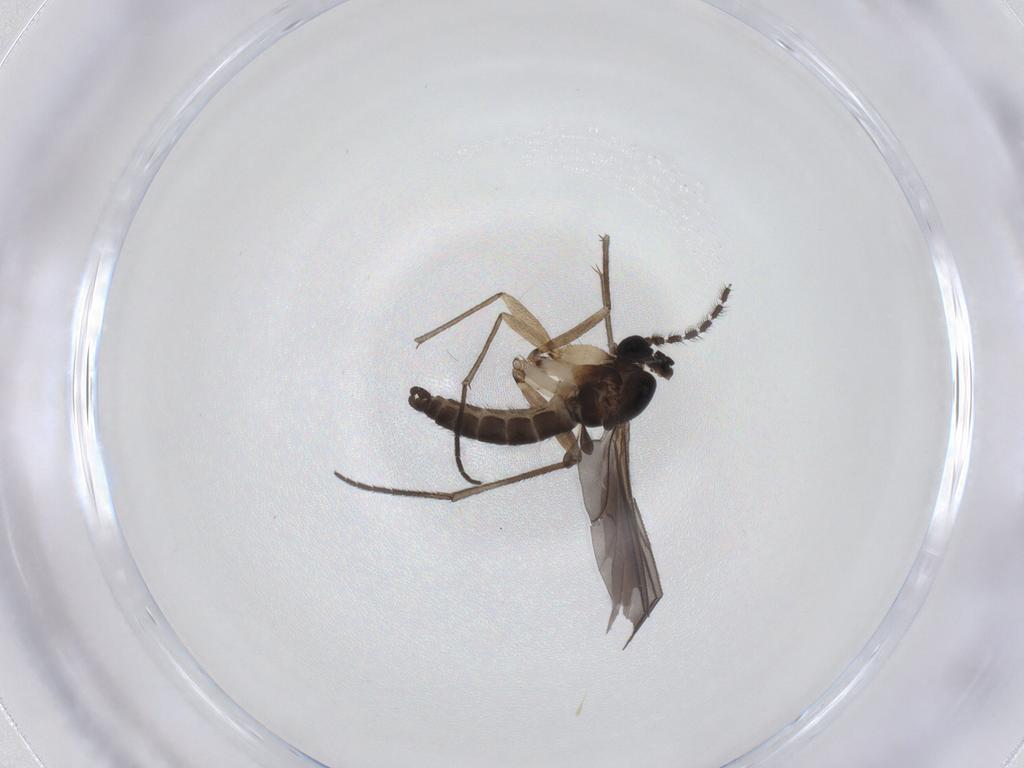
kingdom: Animalia
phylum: Arthropoda
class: Insecta
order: Diptera
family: Sciaridae
